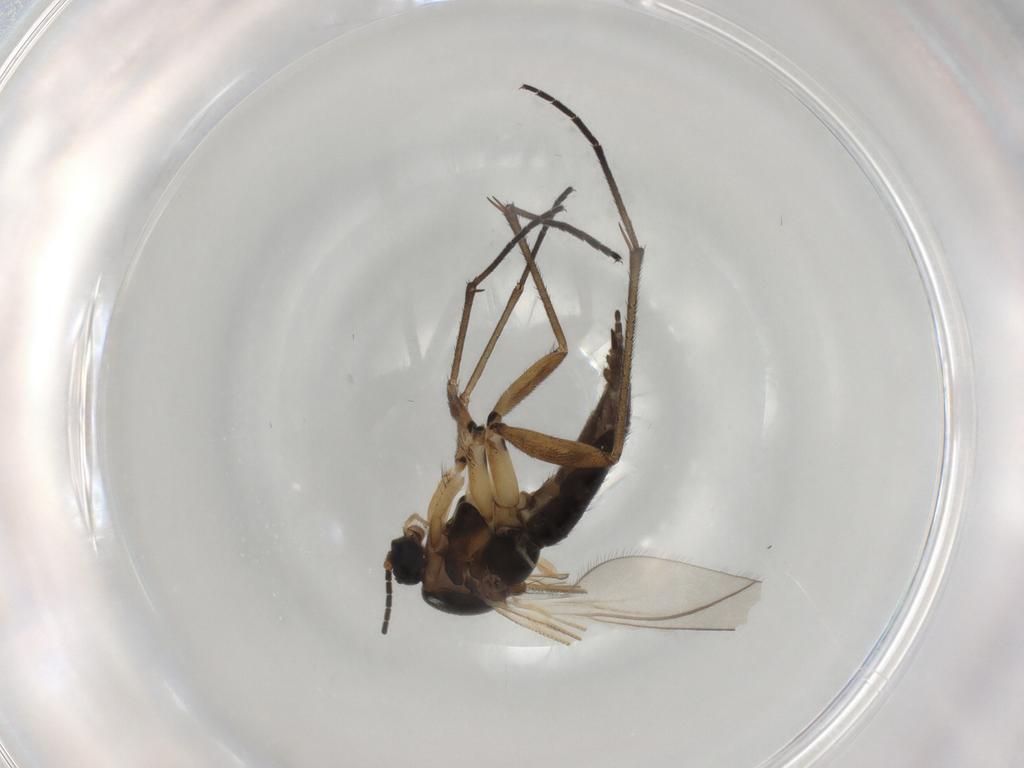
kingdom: Animalia
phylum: Arthropoda
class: Insecta
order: Diptera
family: Sciaridae
